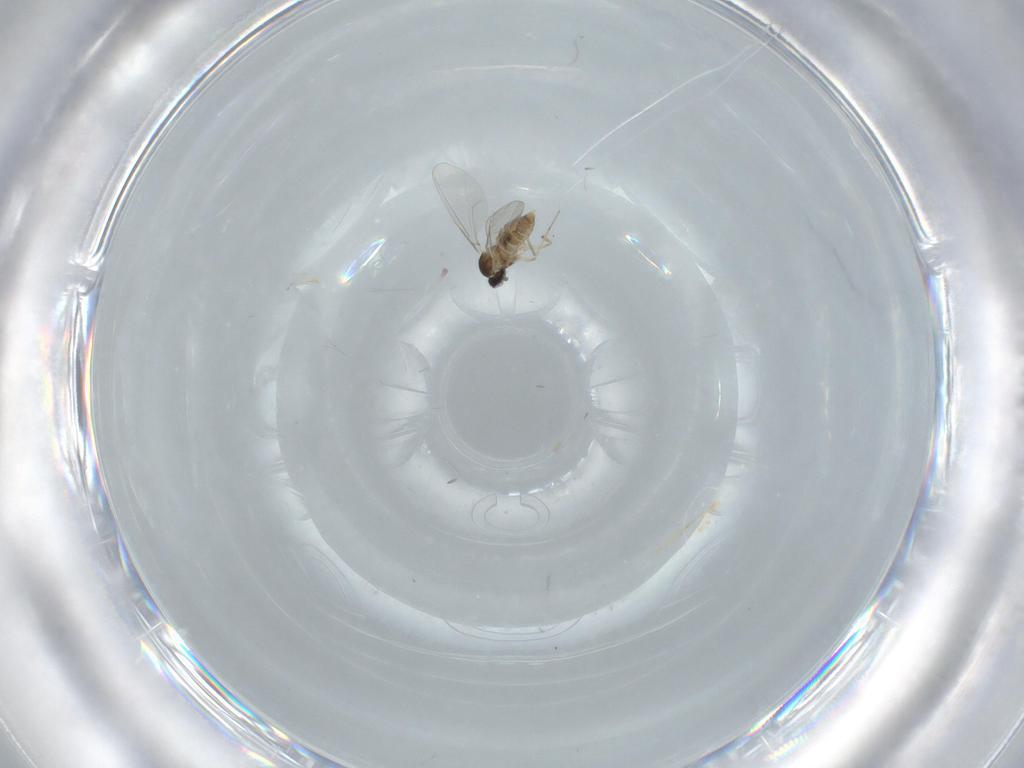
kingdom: Animalia
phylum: Arthropoda
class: Insecta
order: Diptera
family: Cecidomyiidae
